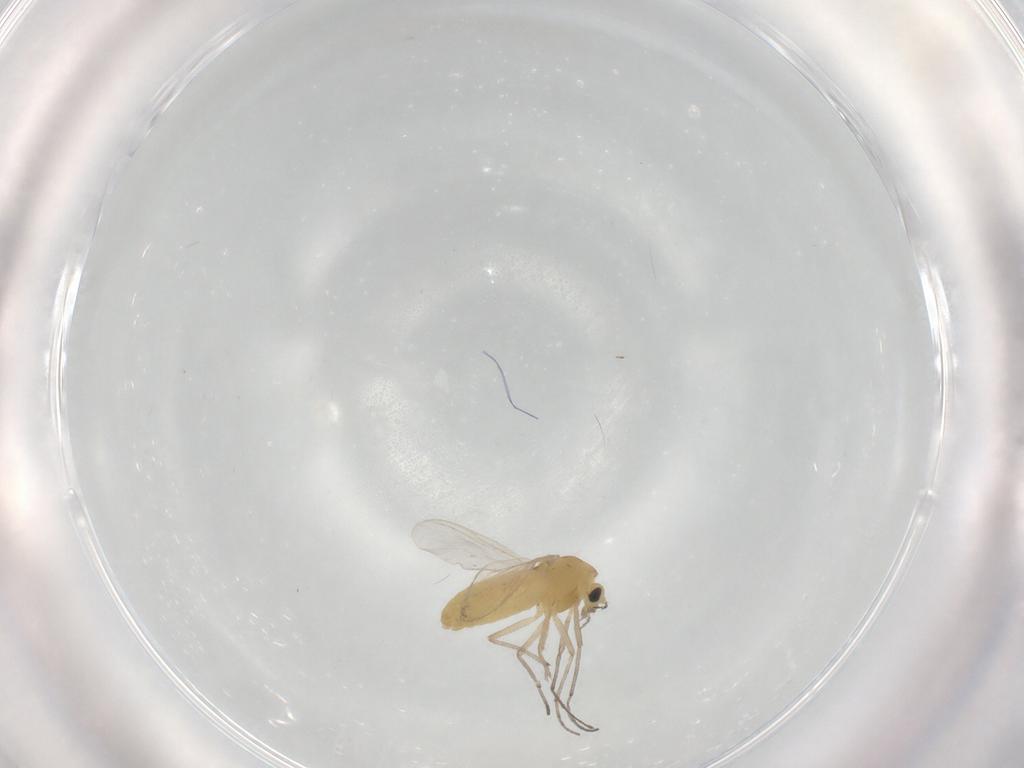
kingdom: Animalia
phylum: Arthropoda
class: Insecta
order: Diptera
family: Chironomidae
